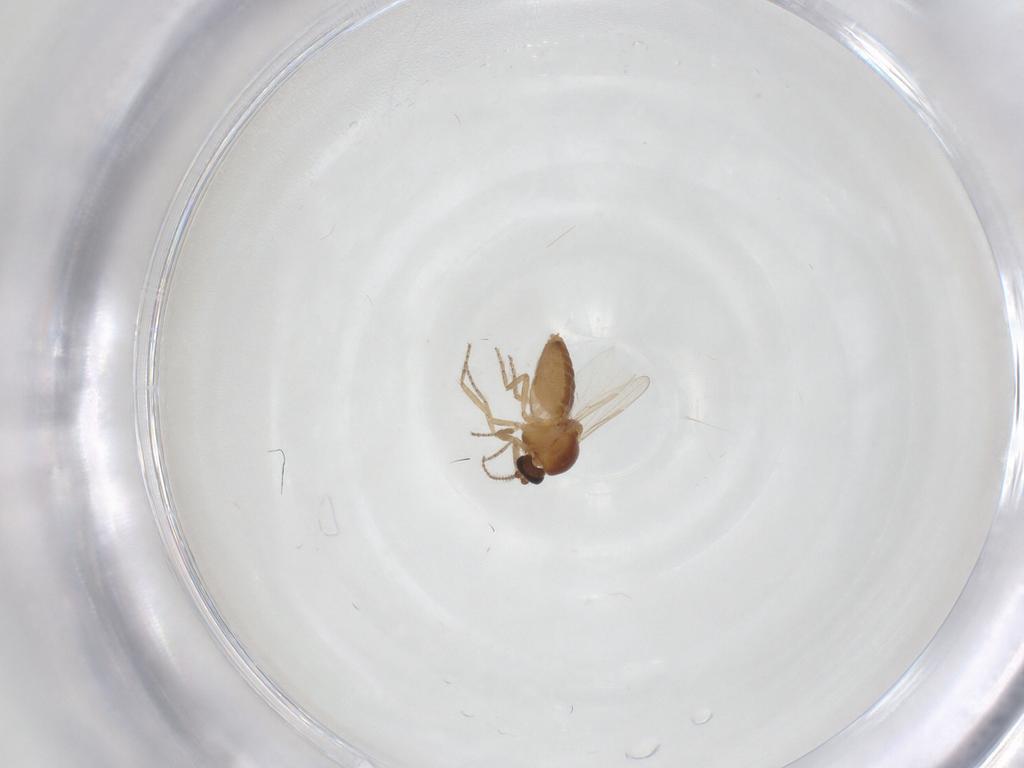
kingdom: Animalia
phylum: Arthropoda
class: Insecta
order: Diptera
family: Ceratopogonidae
